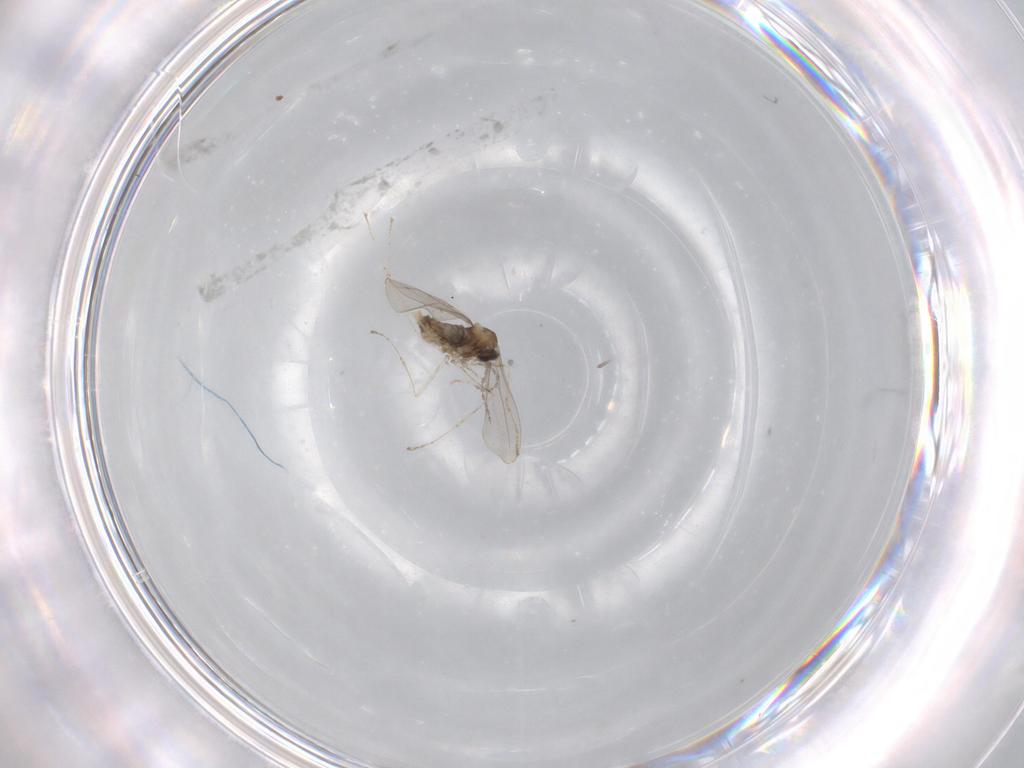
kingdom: Animalia
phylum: Arthropoda
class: Insecta
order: Diptera
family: Cecidomyiidae
